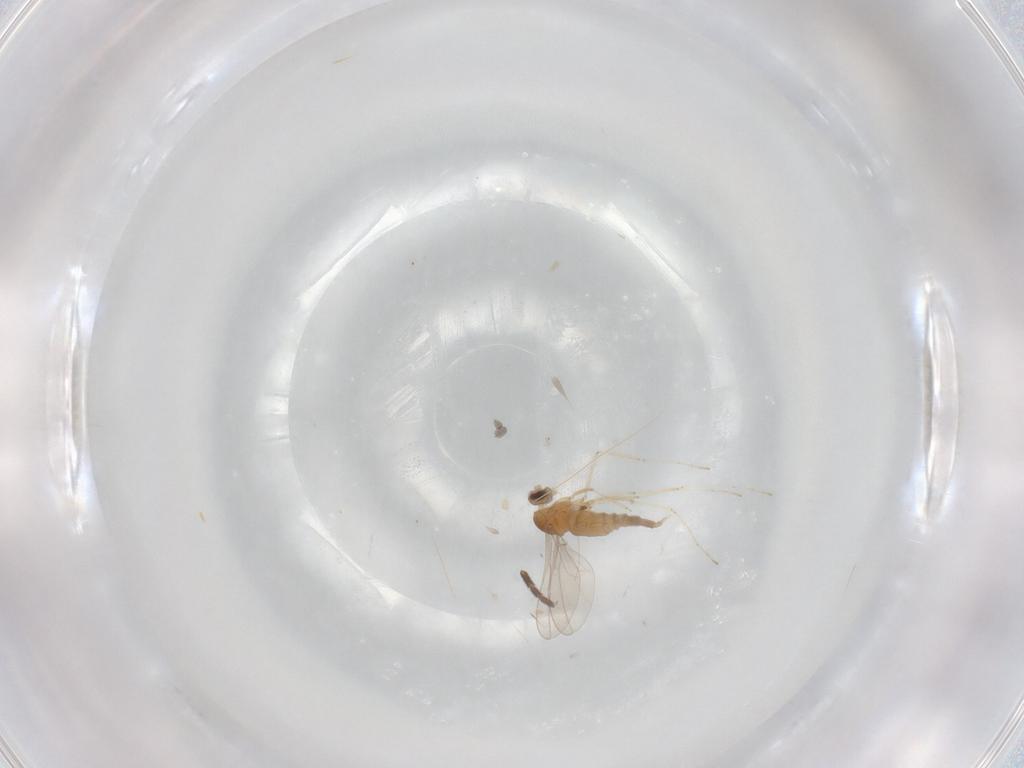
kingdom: Animalia
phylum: Arthropoda
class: Insecta
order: Diptera
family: Cecidomyiidae
